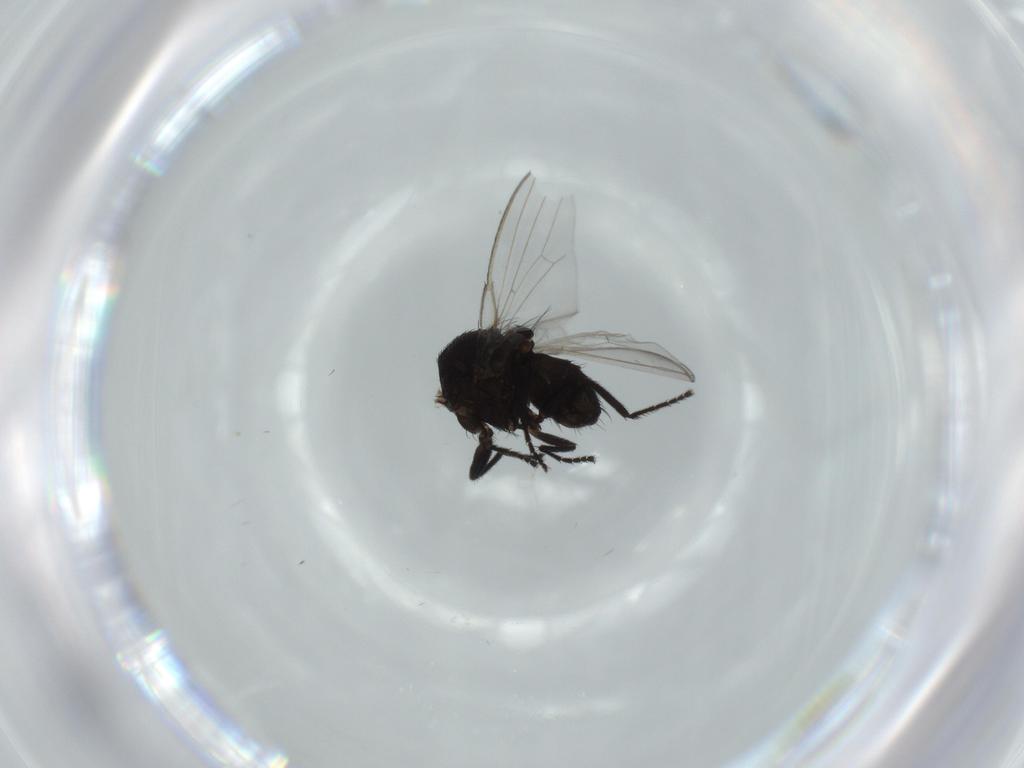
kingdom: Animalia
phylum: Arthropoda
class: Insecta
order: Diptera
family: Milichiidae
